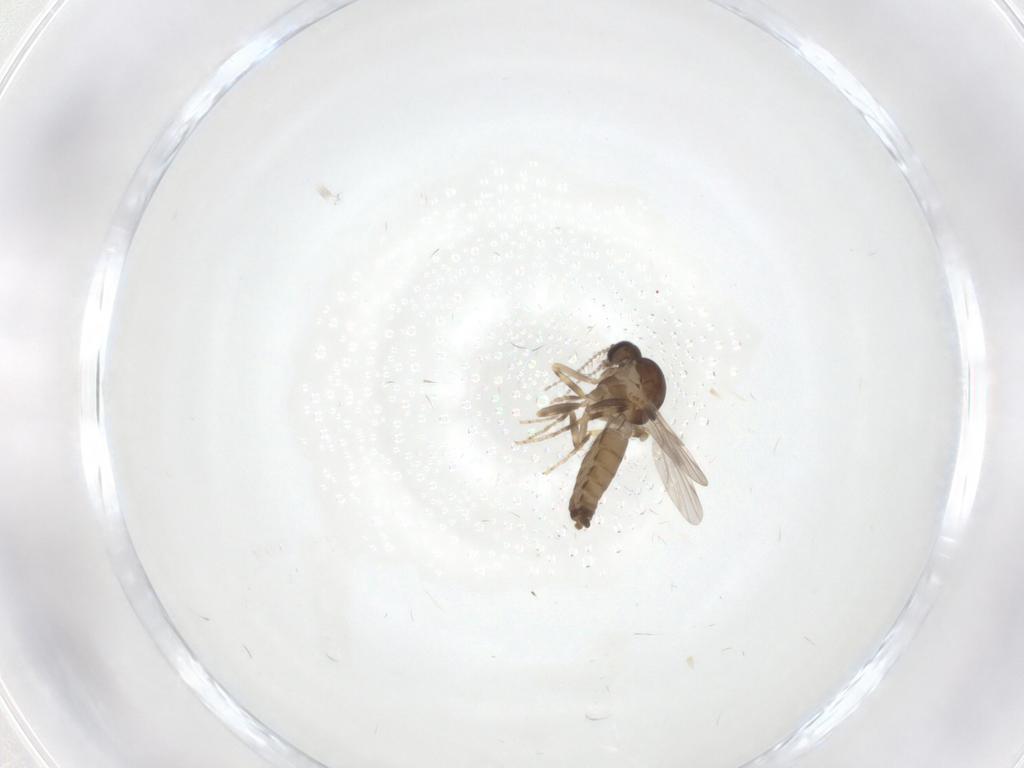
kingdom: Animalia
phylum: Arthropoda
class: Insecta
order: Diptera
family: Ceratopogonidae
